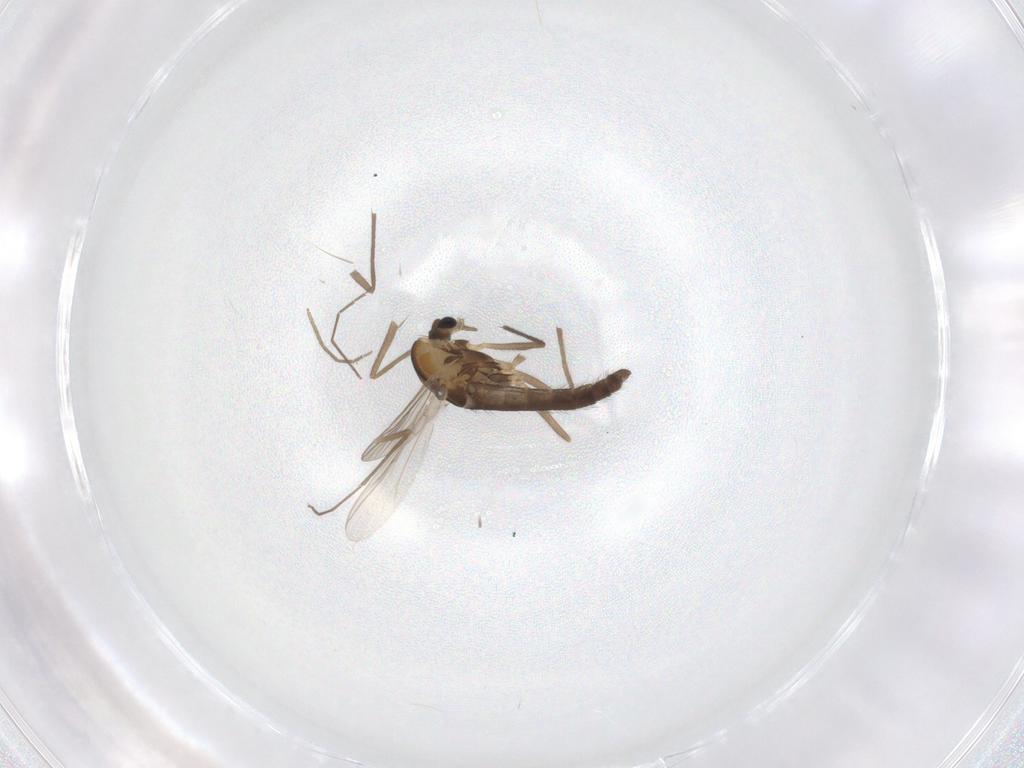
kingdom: Animalia
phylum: Arthropoda
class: Insecta
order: Diptera
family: Chironomidae
